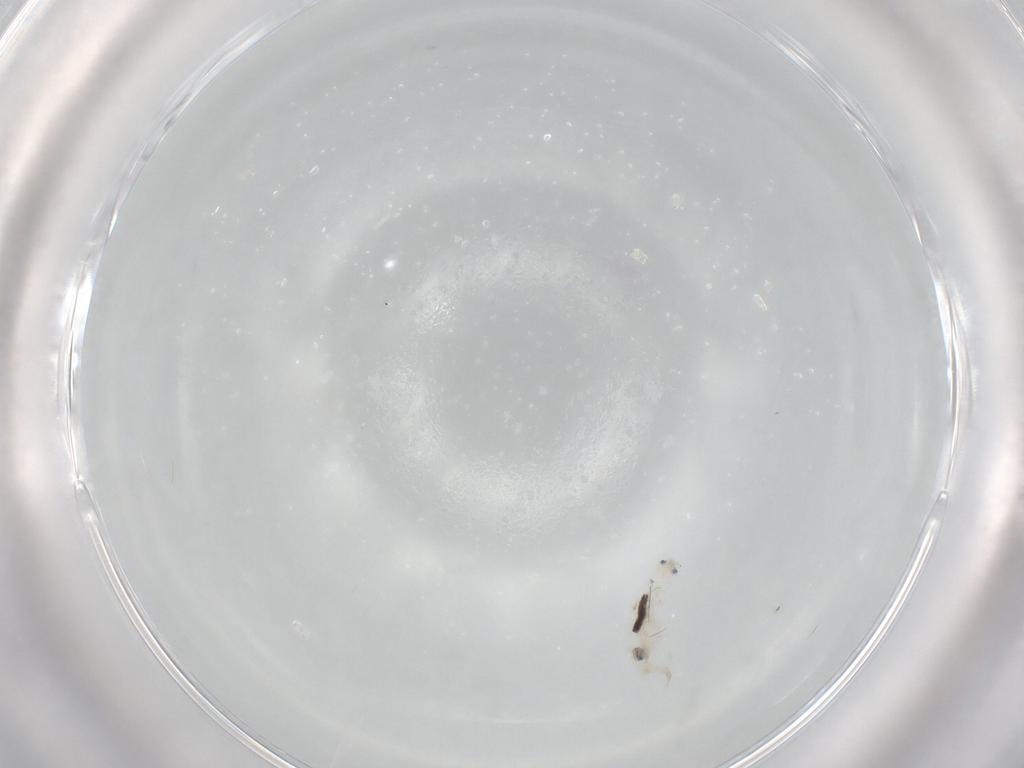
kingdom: Animalia
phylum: Arthropoda
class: Collembola
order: Entomobryomorpha
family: Entomobryidae
